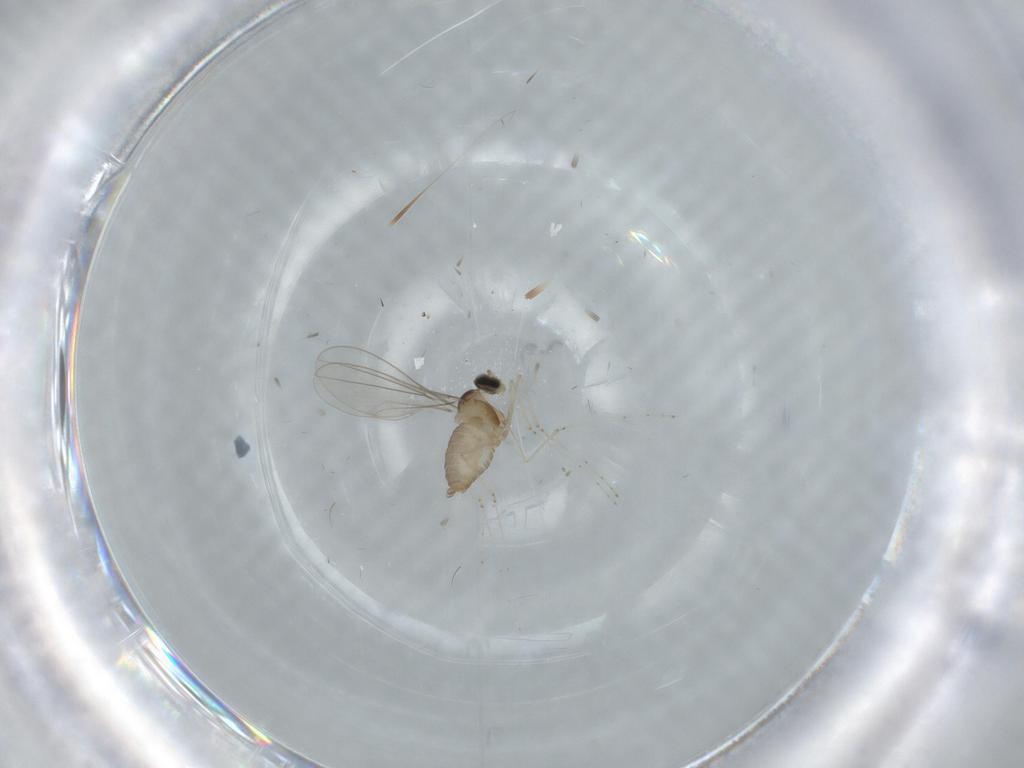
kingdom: Animalia
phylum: Arthropoda
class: Insecta
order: Diptera
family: Cecidomyiidae
